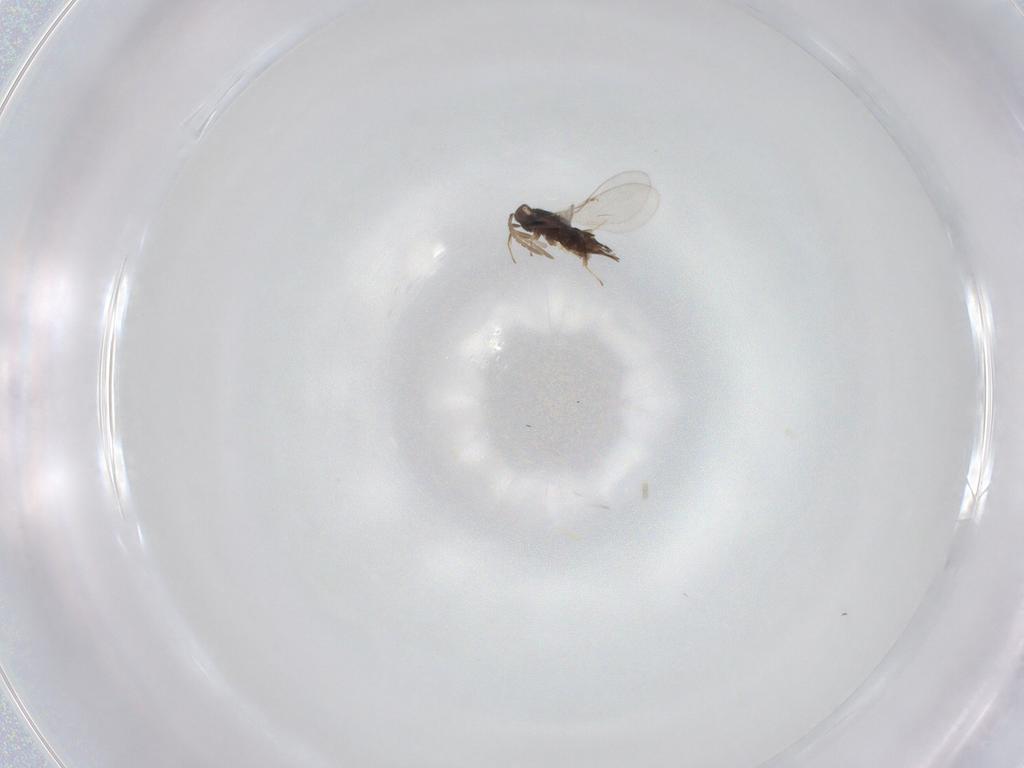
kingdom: Animalia
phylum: Arthropoda
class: Insecta
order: Hymenoptera
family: Encyrtidae
